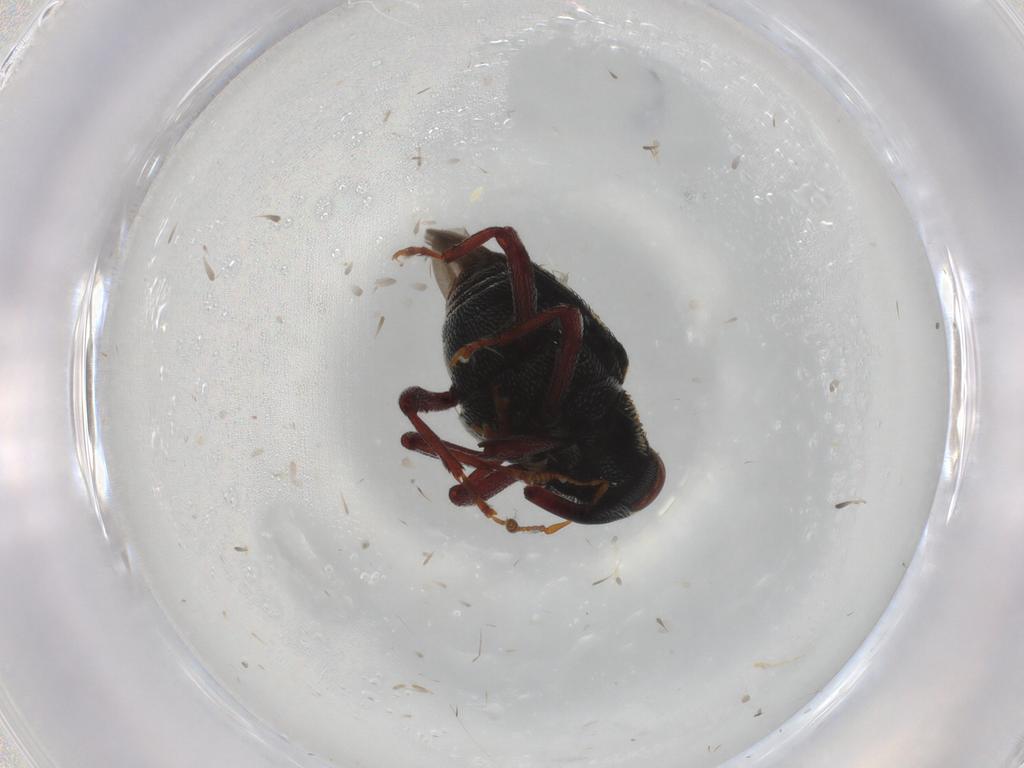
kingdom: Animalia
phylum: Arthropoda
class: Insecta
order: Coleoptera
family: Curculionidae
